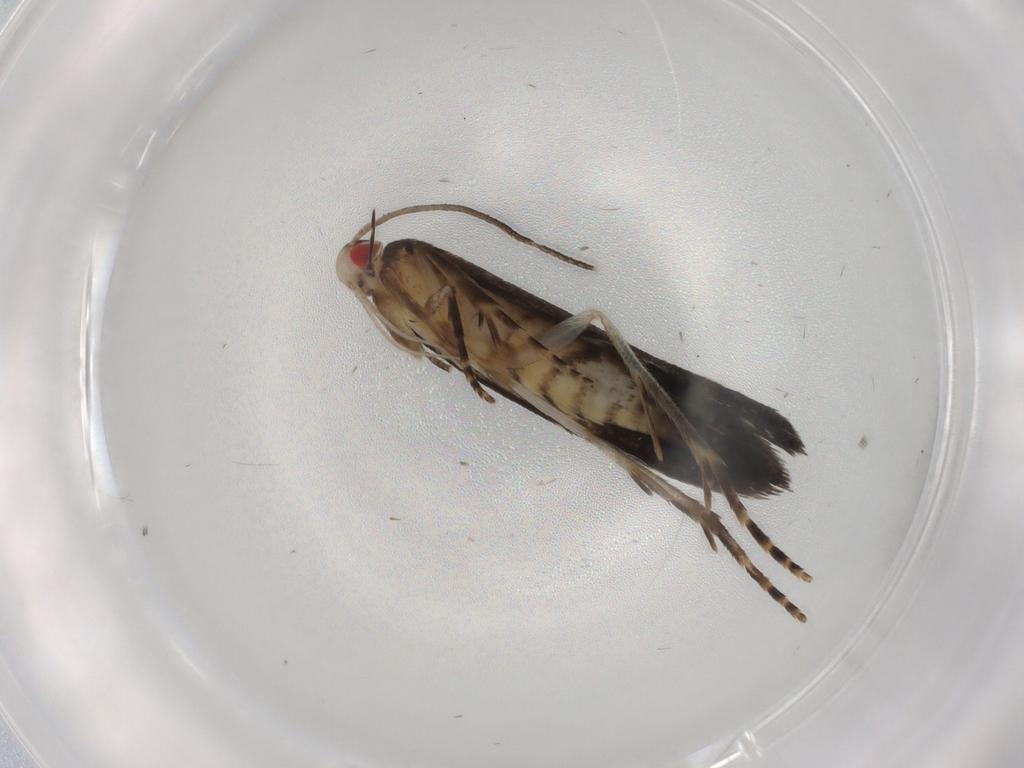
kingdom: Animalia
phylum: Arthropoda
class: Insecta
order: Lepidoptera
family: Gelechiidae
